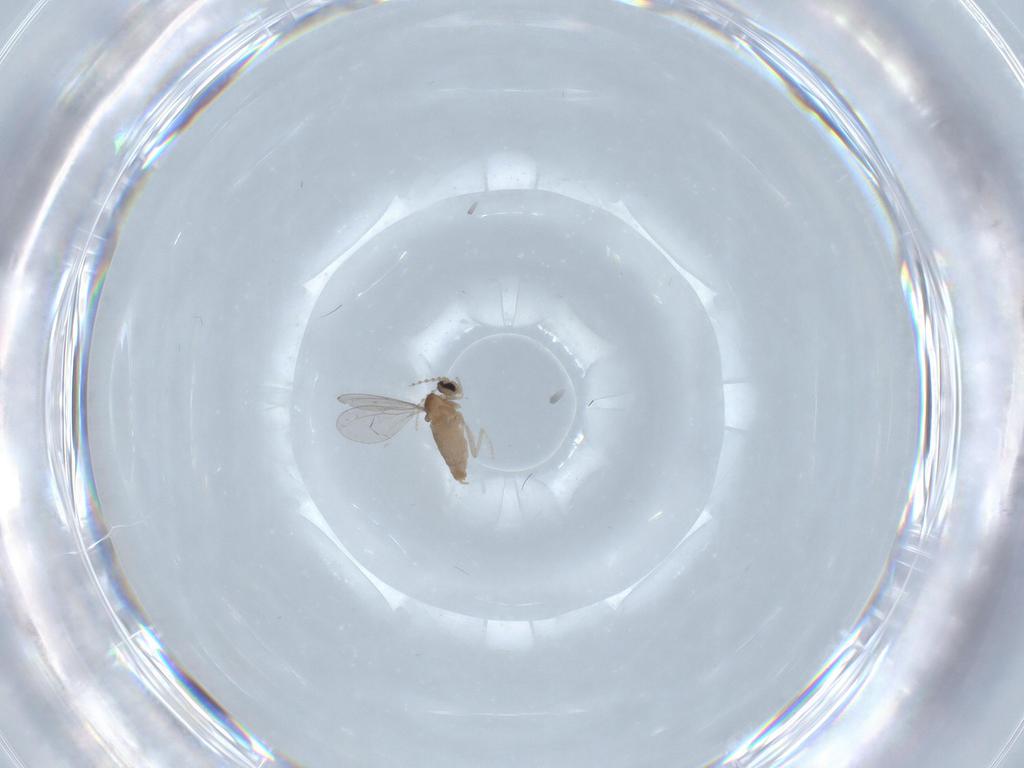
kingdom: Animalia
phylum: Arthropoda
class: Insecta
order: Diptera
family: Cecidomyiidae
